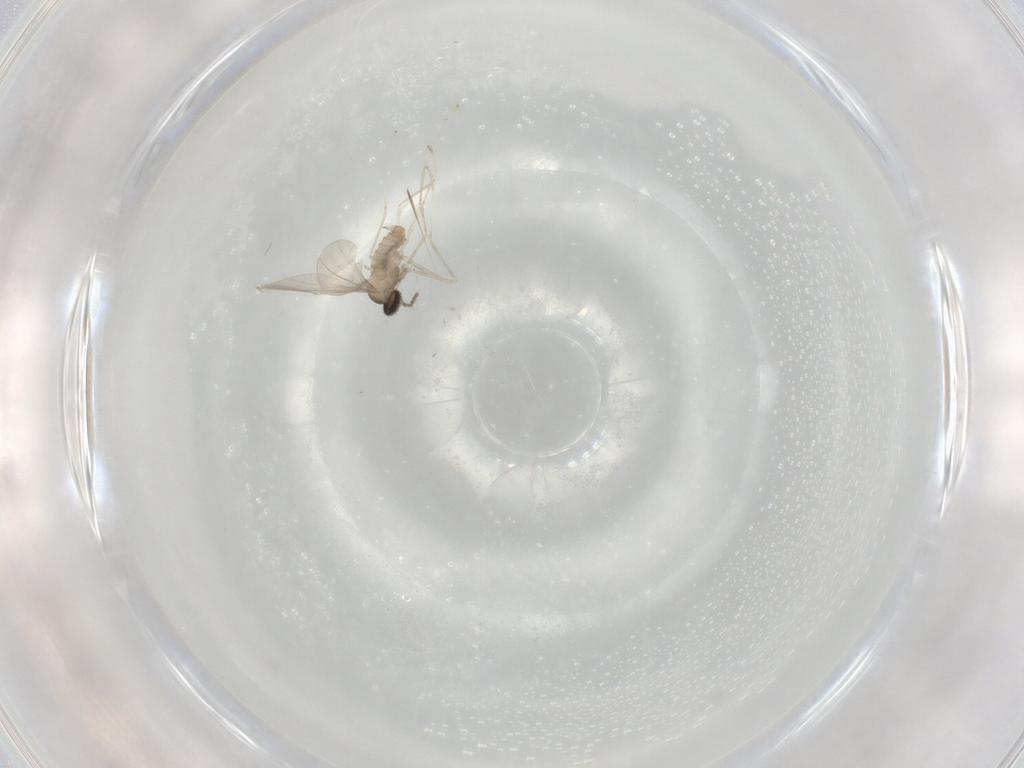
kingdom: Animalia
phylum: Arthropoda
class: Insecta
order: Diptera
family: Cecidomyiidae
